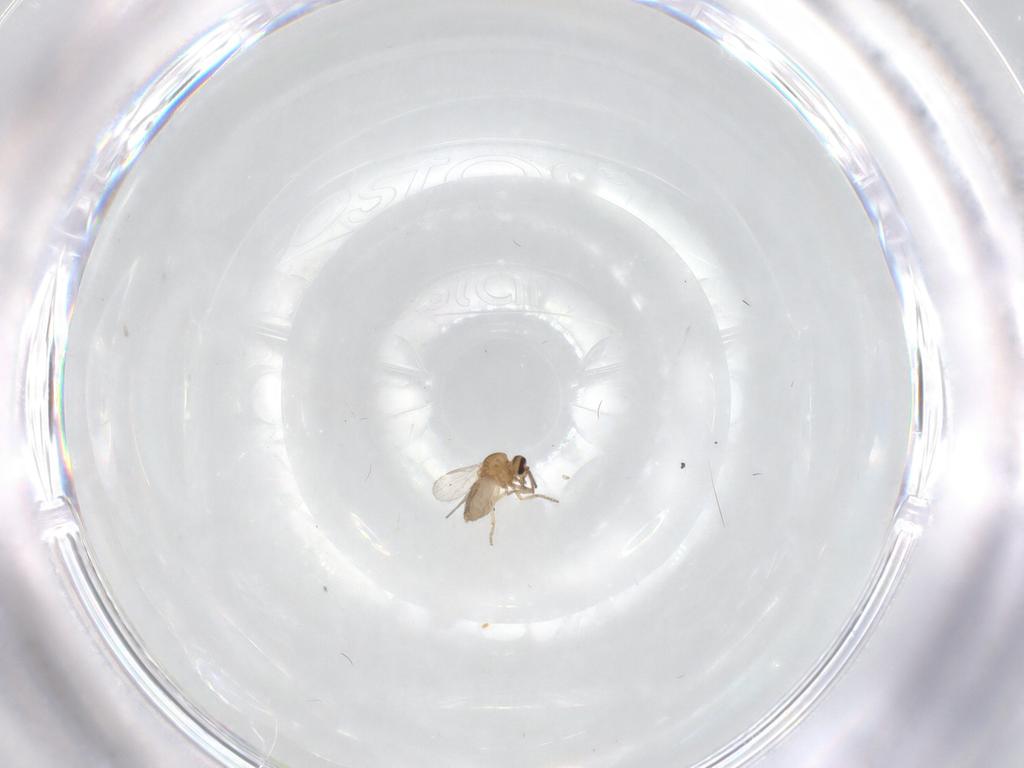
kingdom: Animalia
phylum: Arthropoda
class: Insecta
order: Diptera
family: Ceratopogonidae
